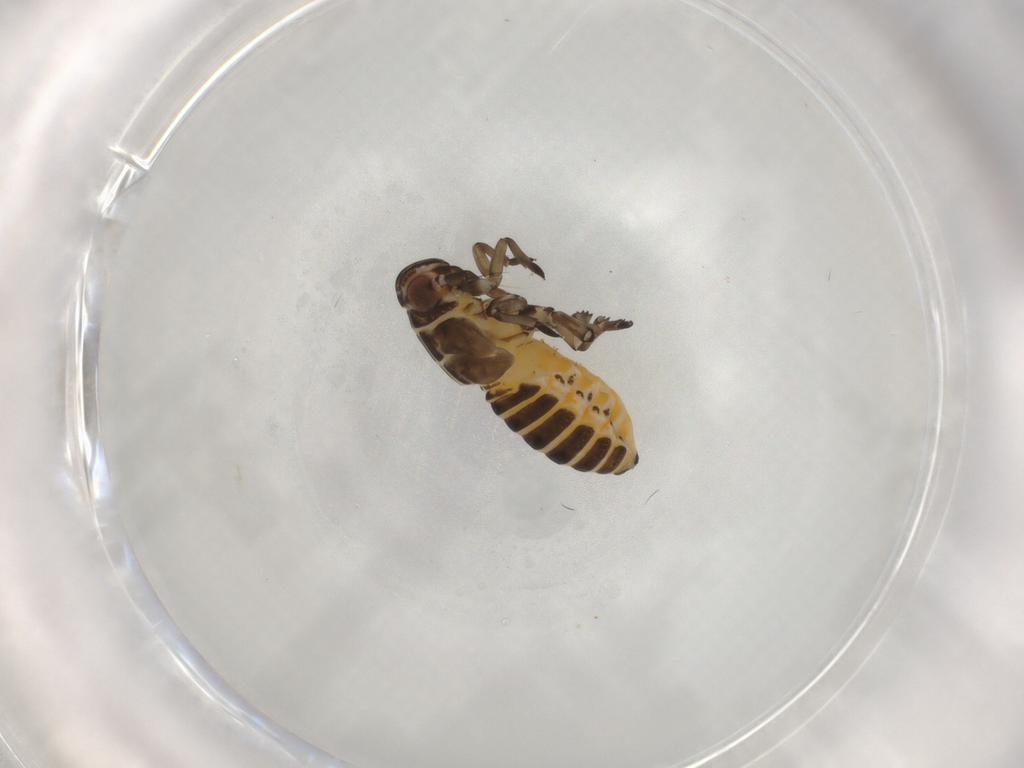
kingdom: Animalia
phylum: Arthropoda
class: Insecta
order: Hemiptera
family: Cicadellidae
